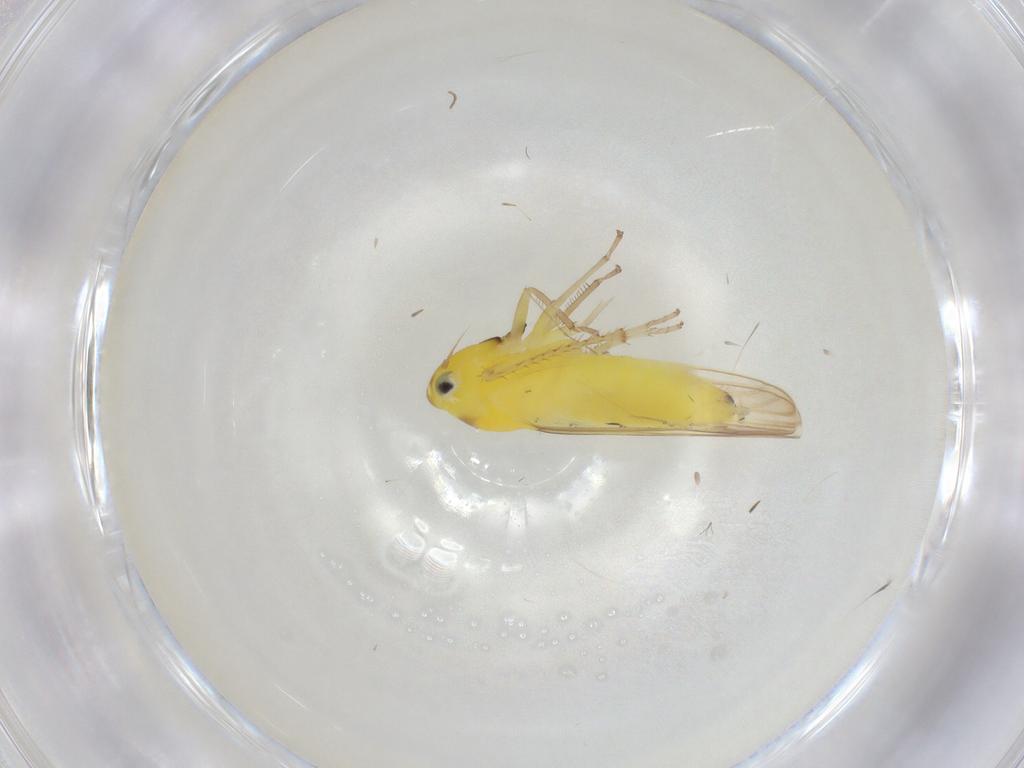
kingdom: Animalia
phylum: Arthropoda
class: Insecta
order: Hemiptera
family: Cicadellidae
